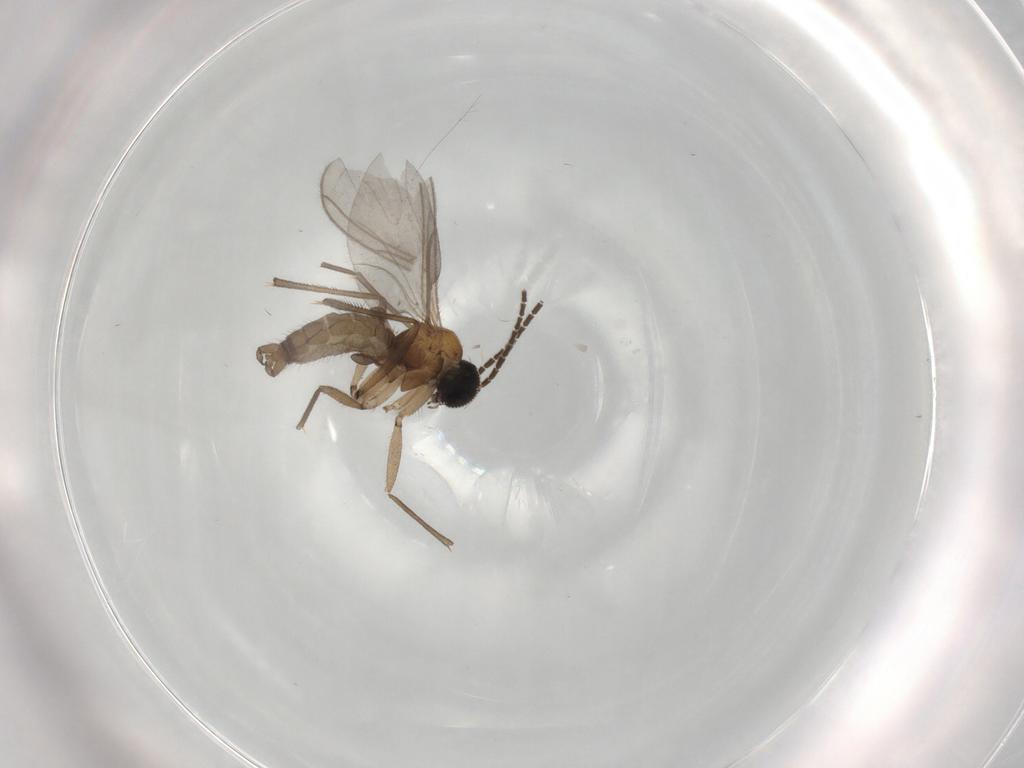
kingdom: Animalia
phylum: Arthropoda
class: Insecta
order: Diptera
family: Sciaridae
